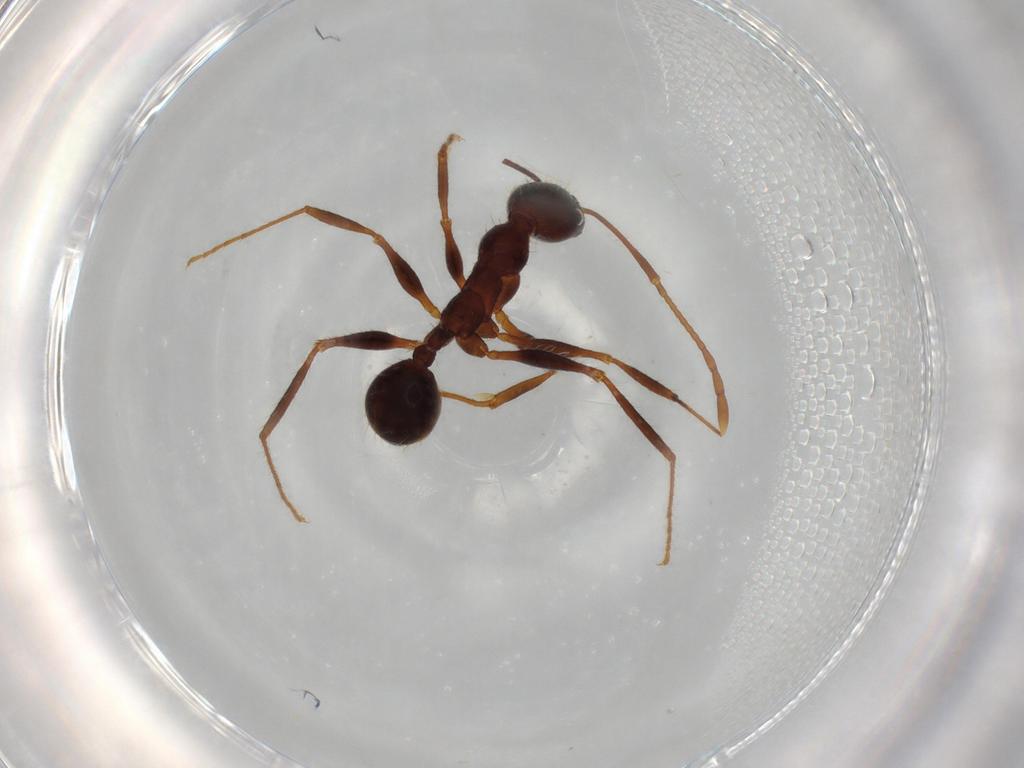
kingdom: Animalia
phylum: Arthropoda
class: Insecta
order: Hymenoptera
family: Formicidae
